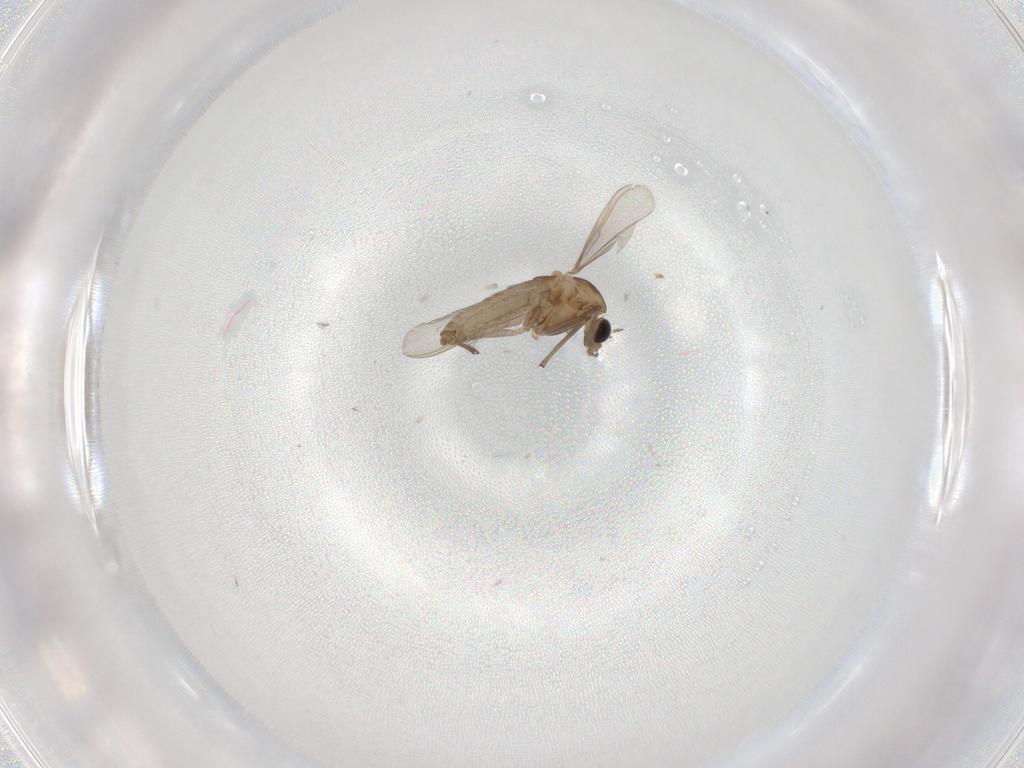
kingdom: Animalia
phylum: Arthropoda
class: Insecta
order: Diptera
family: Chironomidae
